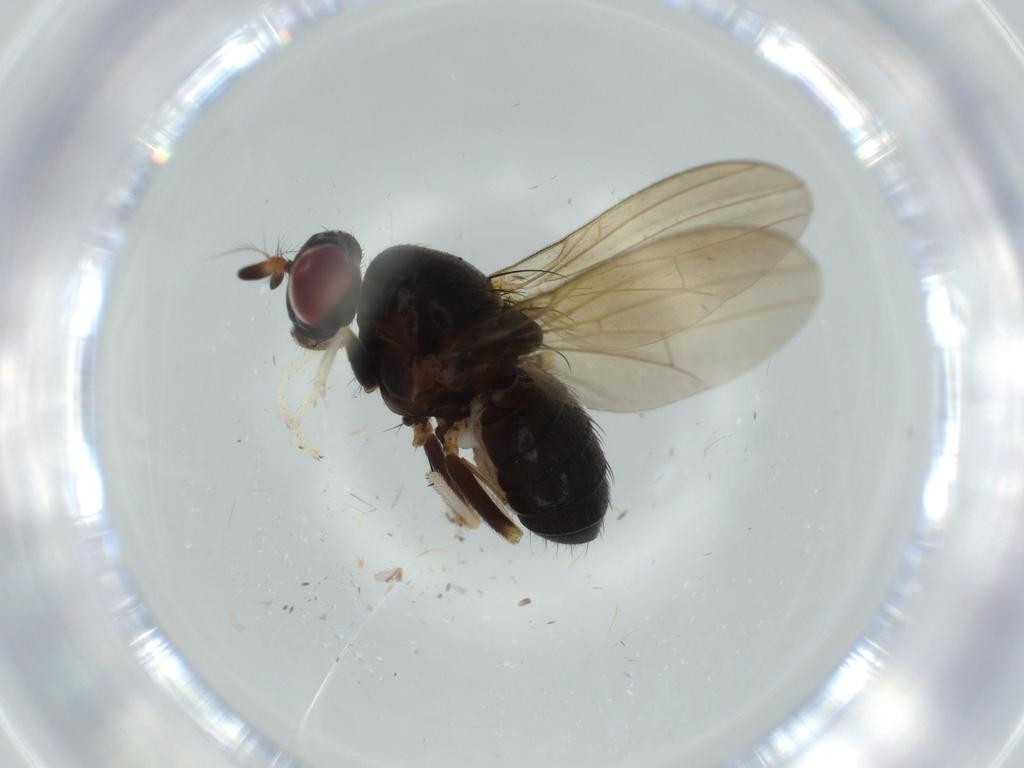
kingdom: Animalia
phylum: Arthropoda
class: Insecta
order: Diptera
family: Lauxaniidae
